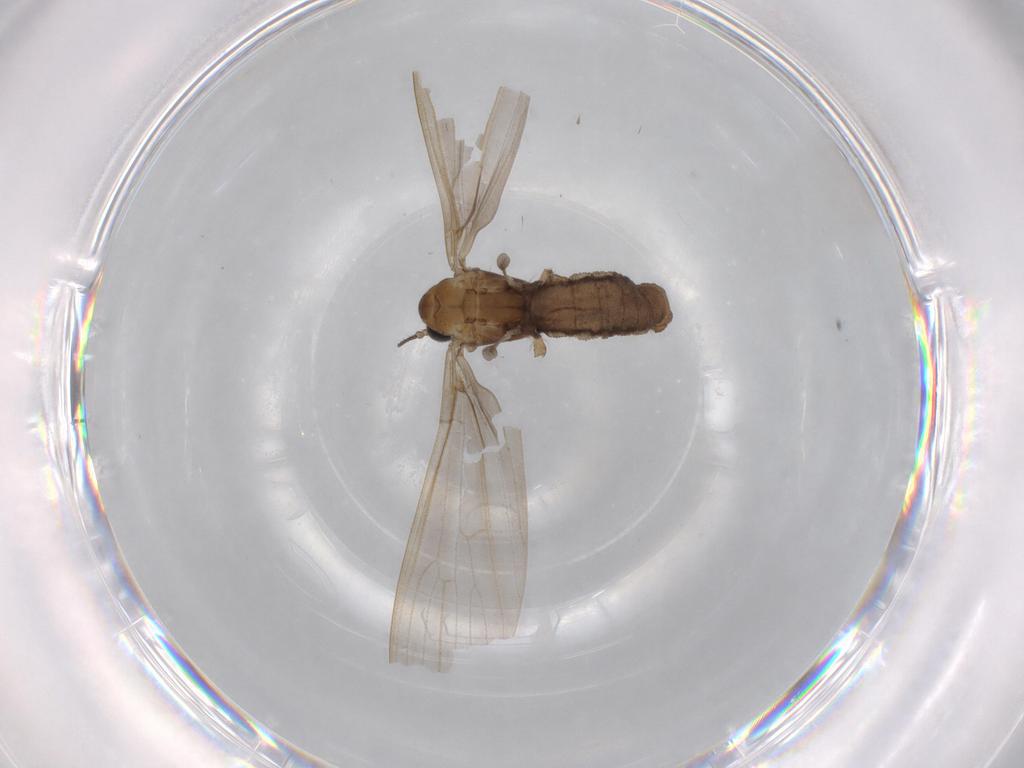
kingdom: Animalia
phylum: Arthropoda
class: Insecta
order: Diptera
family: Limoniidae
